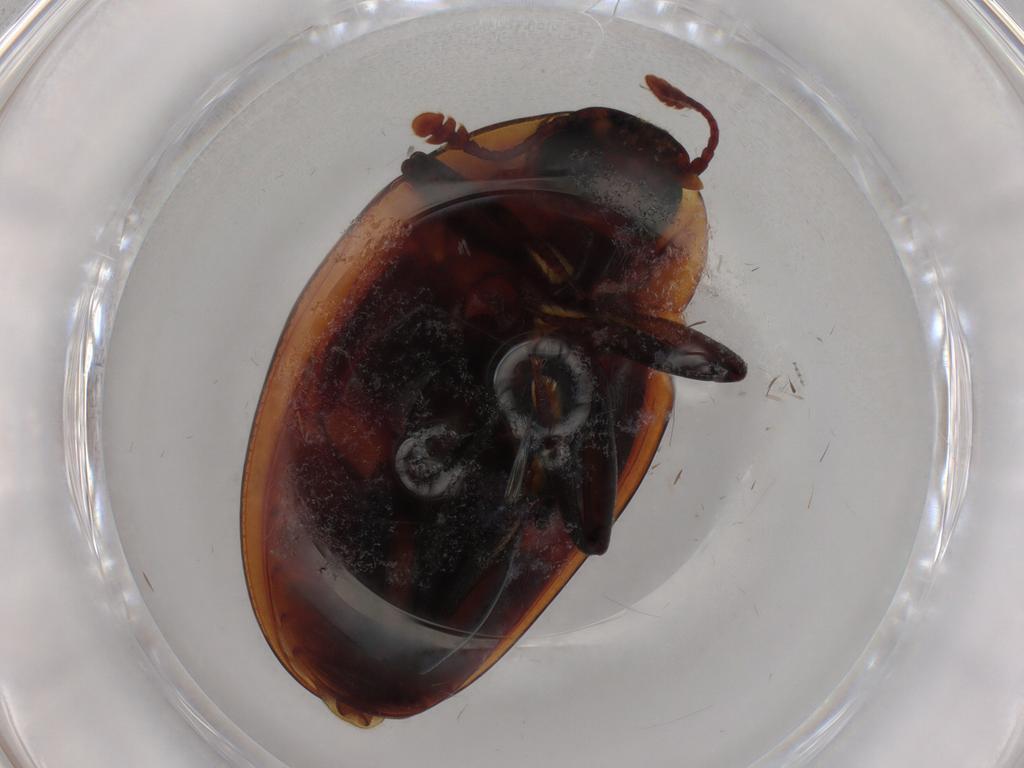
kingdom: Animalia
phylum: Arthropoda
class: Insecta
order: Coleoptera
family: Zopheridae
